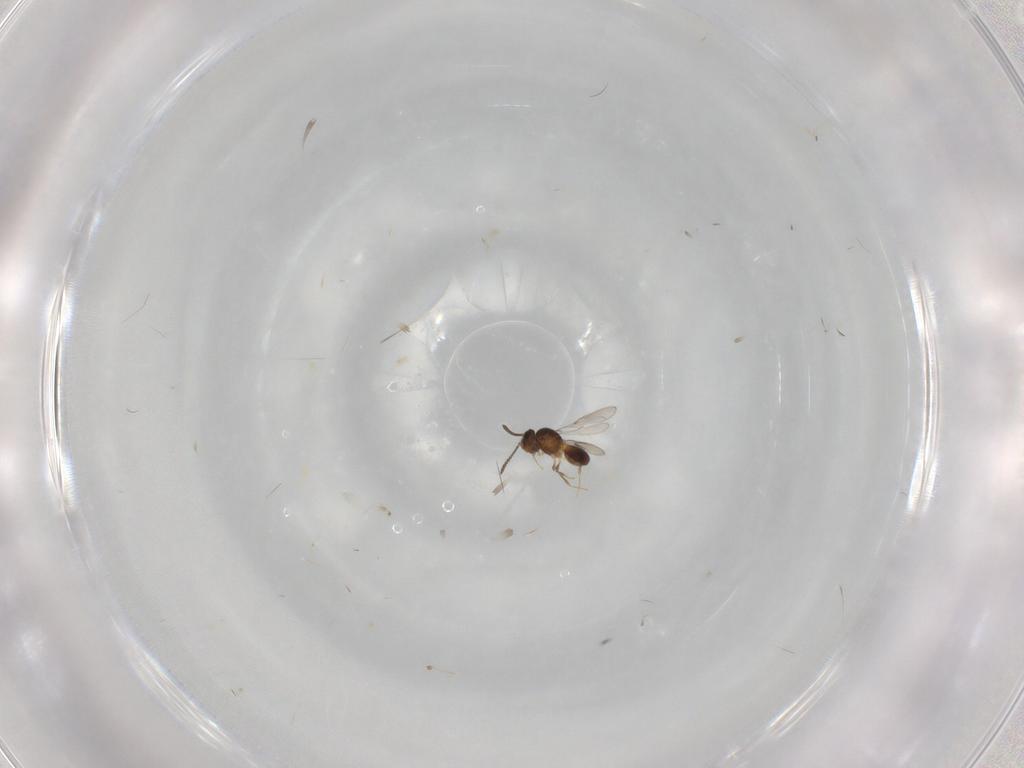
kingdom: Animalia
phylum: Arthropoda
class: Insecta
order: Hymenoptera
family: Scelionidae
